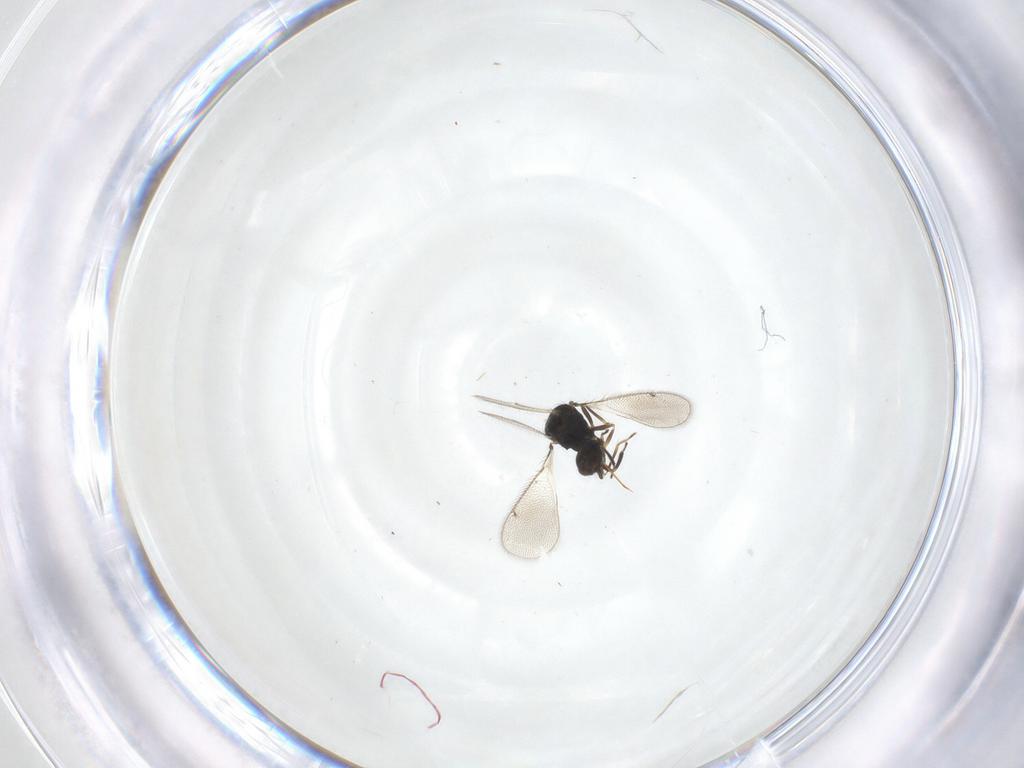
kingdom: Animalia
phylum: Arthropoda
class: Insecta
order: Hymenoptera
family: Eulophidae
